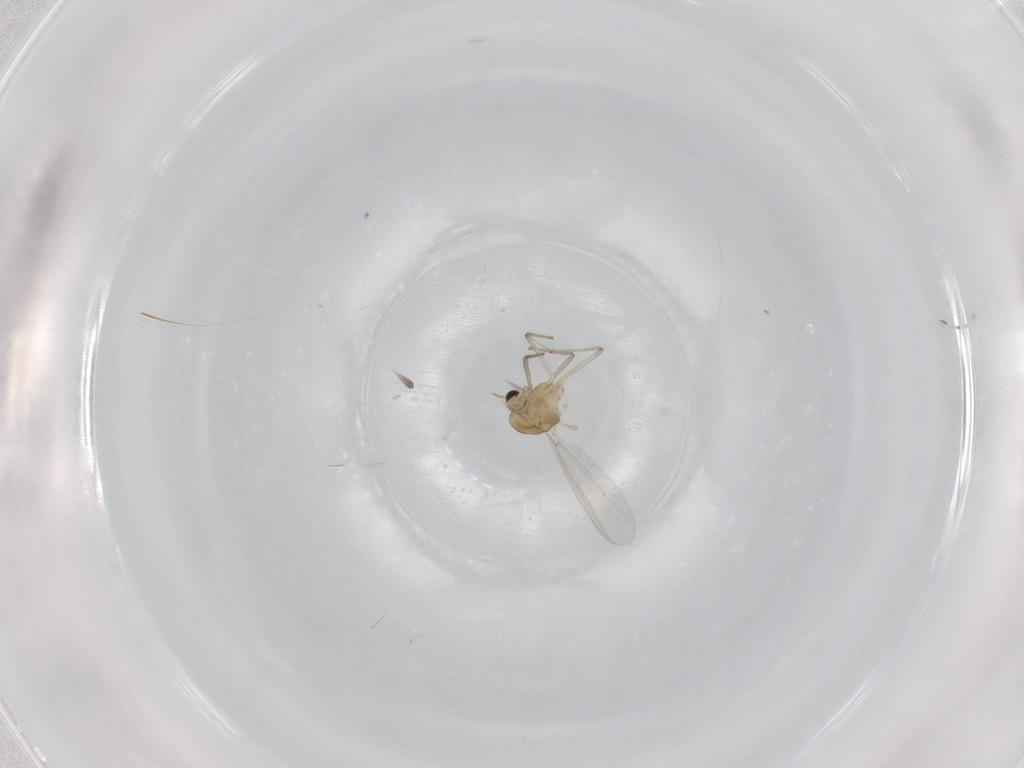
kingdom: Animalia
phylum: Arthropoda
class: Insecta
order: Diptera
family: Chironomidae
